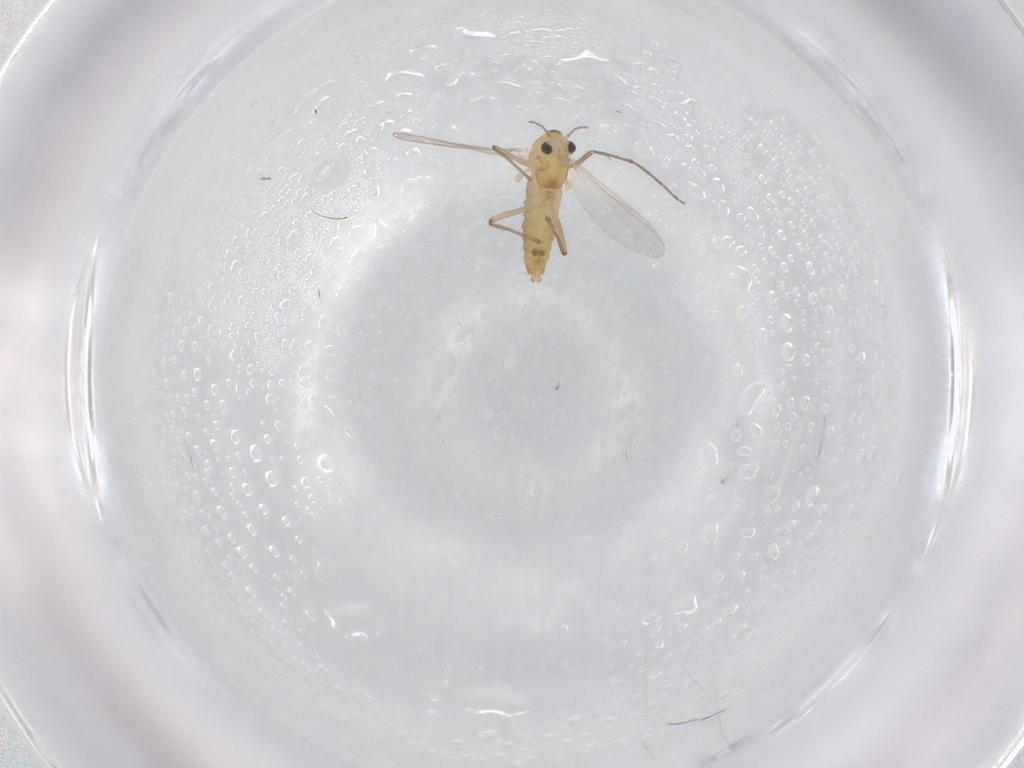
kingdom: Animalia
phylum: Arthropoda
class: Insecta
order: Diptera
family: Chironomidae
